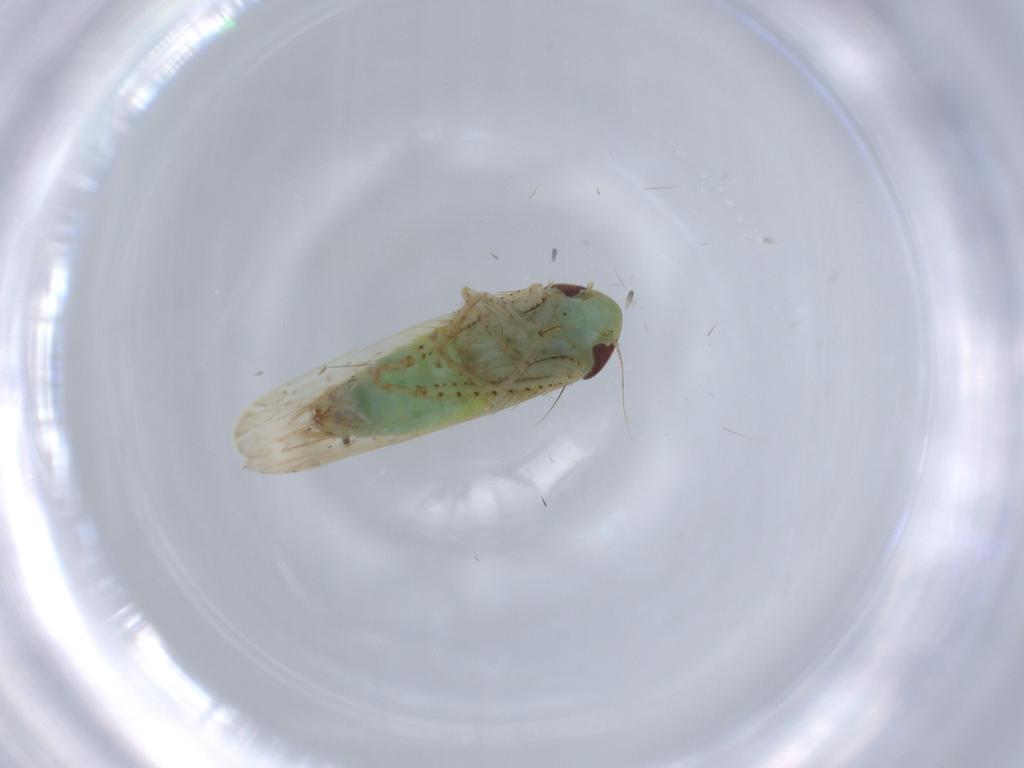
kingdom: Animalia
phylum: Arthropoda
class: Insecta
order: Hemiptera
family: Cicadellidae
